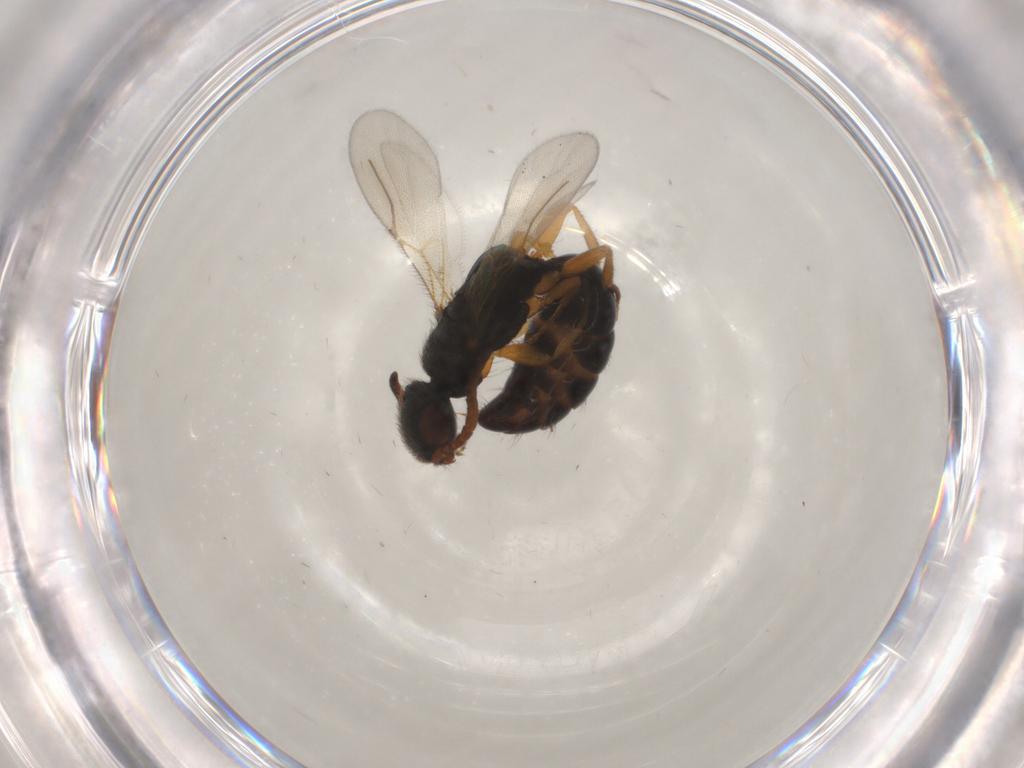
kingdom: Animalia
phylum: Arthropoda
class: Insecta
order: Hymenoptera
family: Bethylidae
